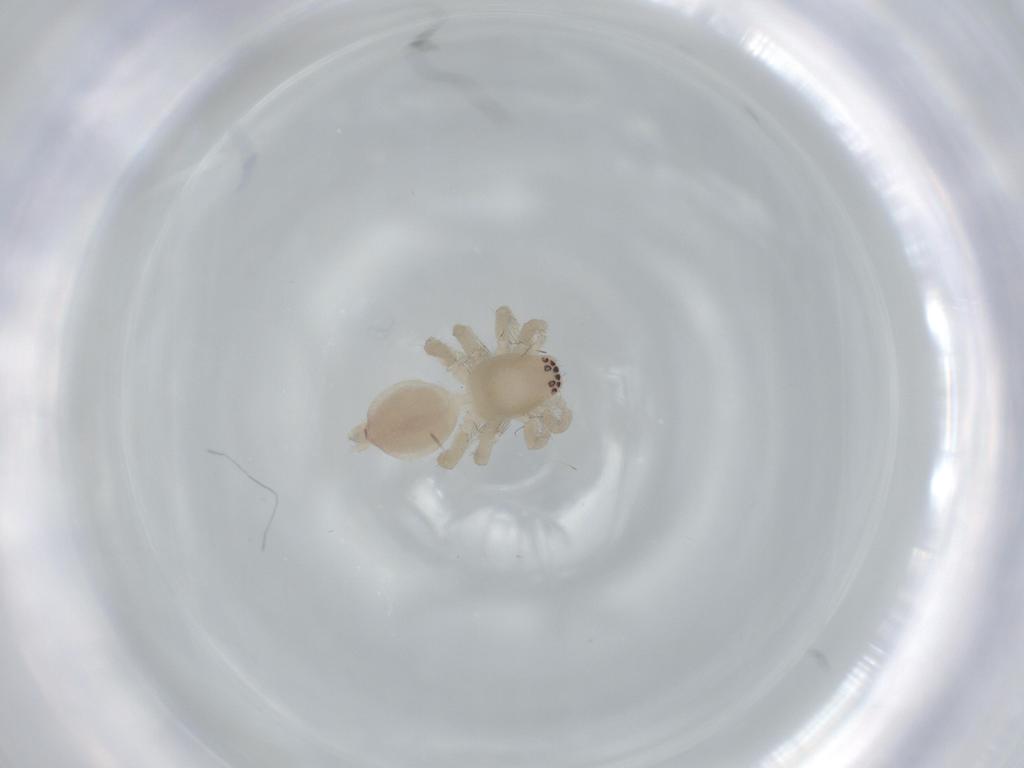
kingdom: Animalia
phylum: Arthropoda
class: Arachnida
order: Araneae
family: Clubionidae
